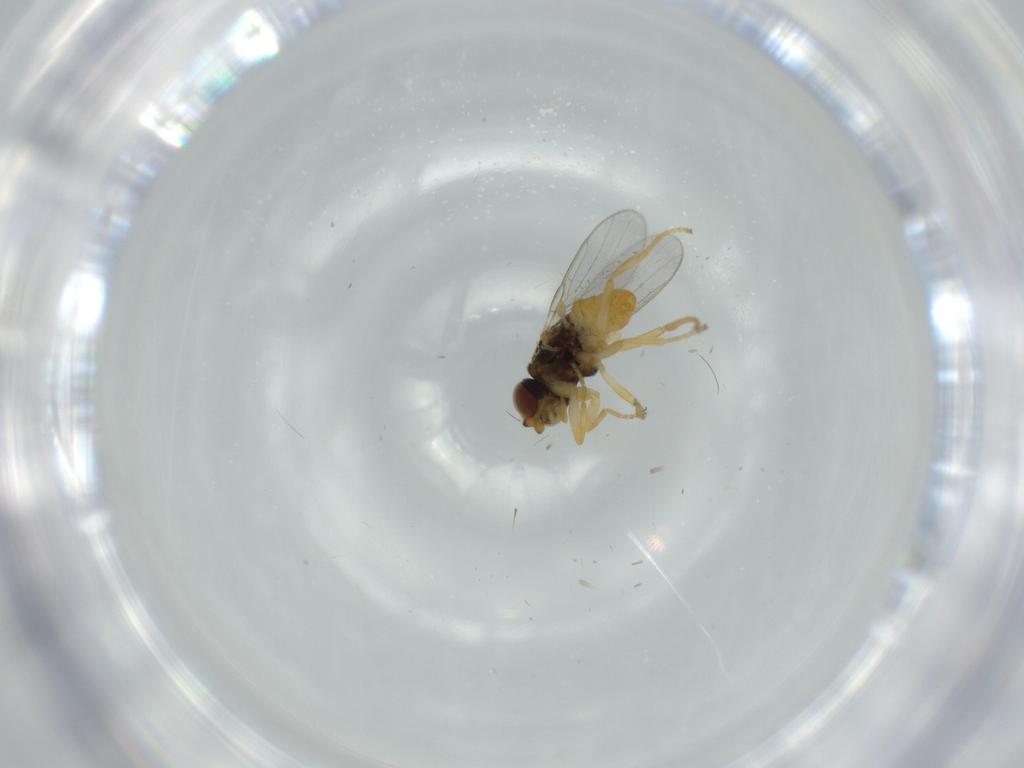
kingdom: Animalia
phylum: Arthropoda
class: Insecta
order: Diptera
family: Chloropidae
